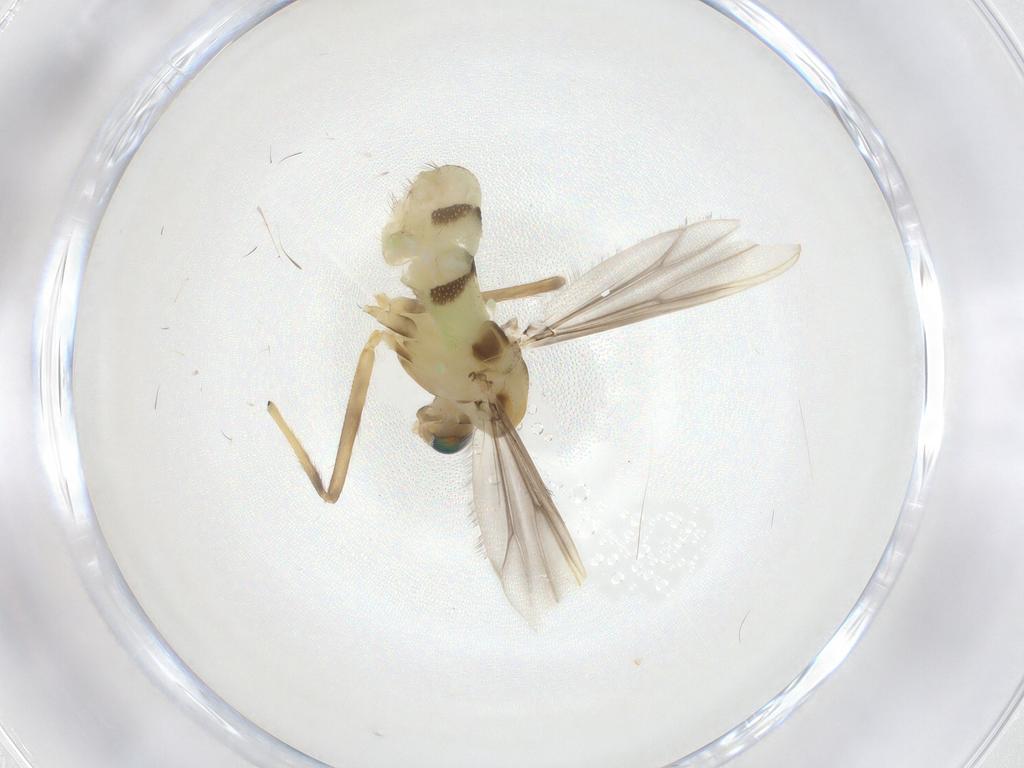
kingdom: Animalia
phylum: Arthropoda
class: Insecta
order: Diptera
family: Chironomidae
